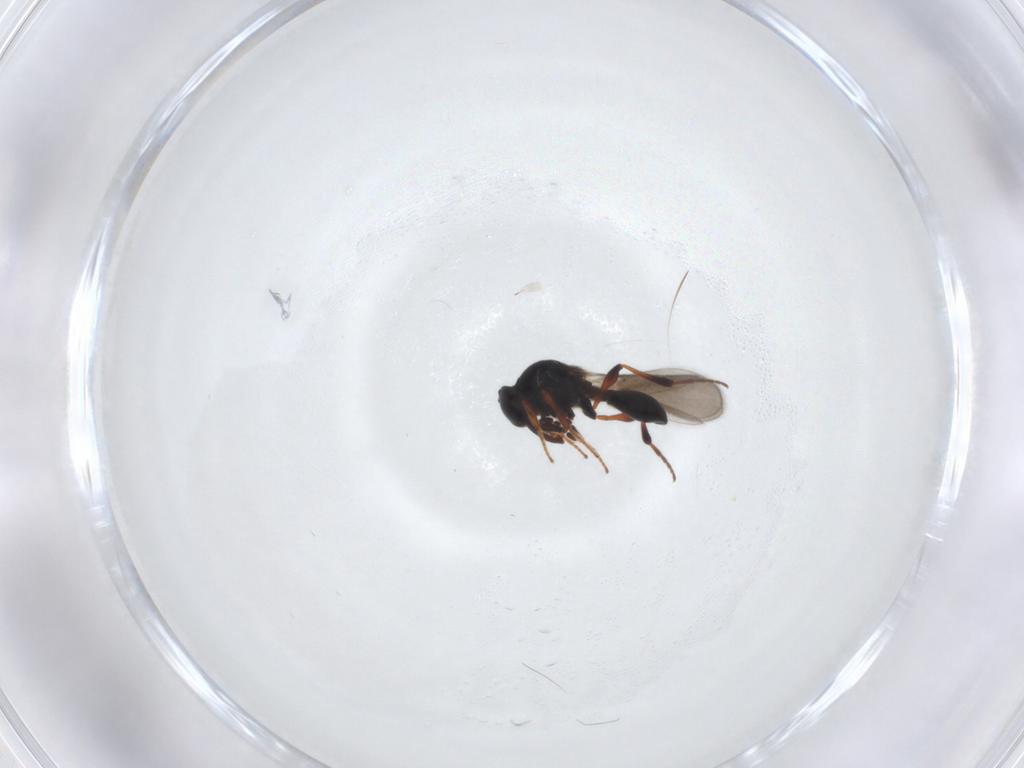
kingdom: Animalia
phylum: Arthropoda
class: Insecta
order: Hymenoptera
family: Platygastridae
